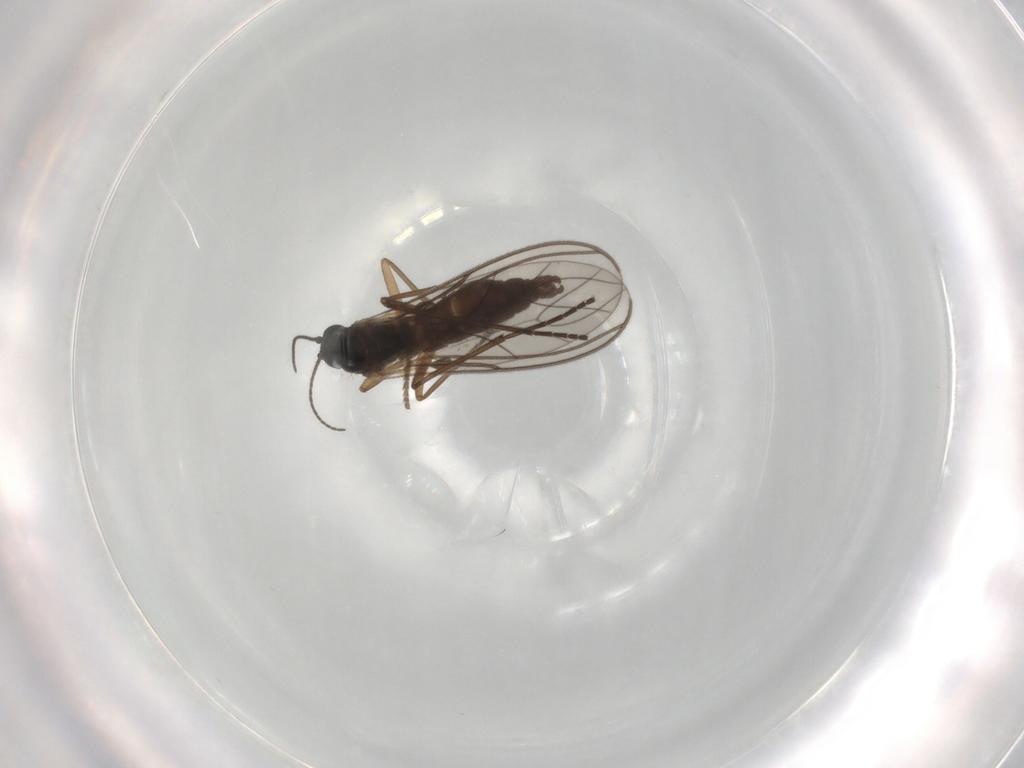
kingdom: Animalia
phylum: Arthropoda
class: Insecta
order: Diptera
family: Sciaridae
